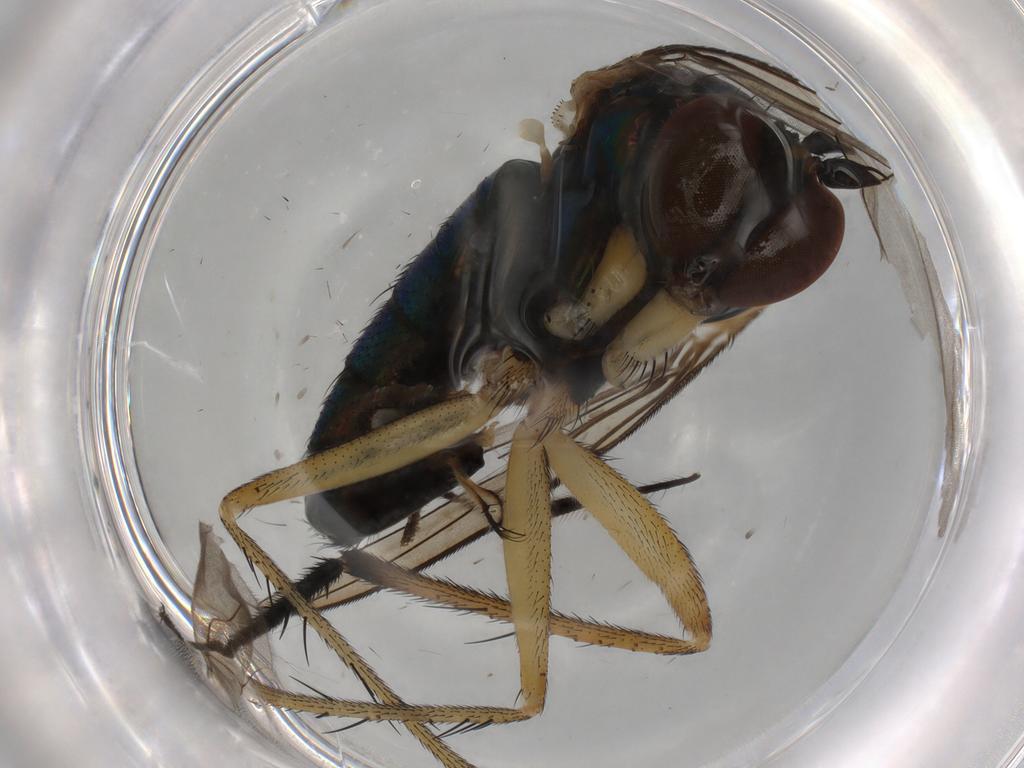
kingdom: Animalia
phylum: Arthropoda
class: Insecta
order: Diptera
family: Dolichopodidae
